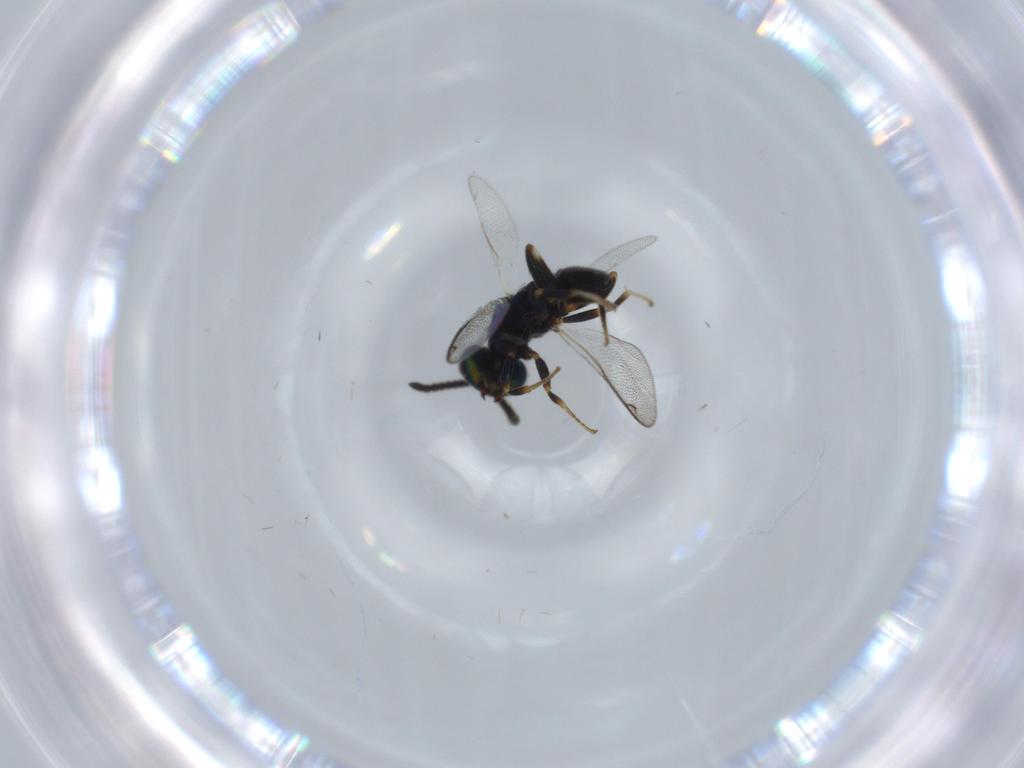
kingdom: Animalia
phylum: Arthropoda
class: Insecta
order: Hymenoptera
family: Cleonyminae
